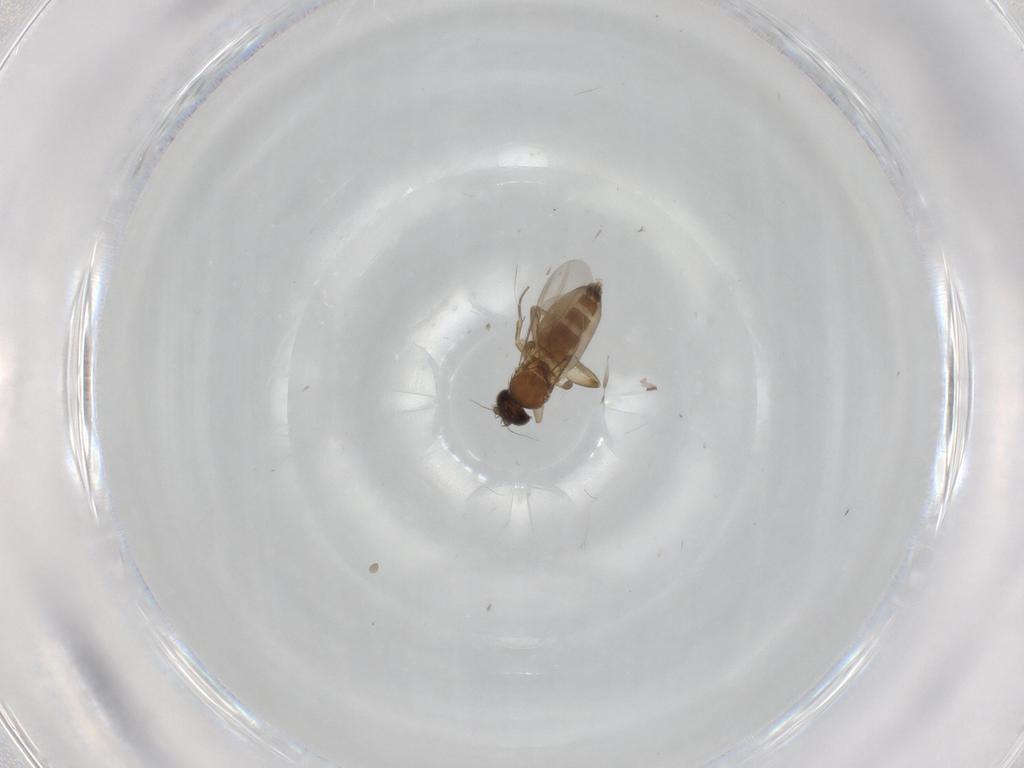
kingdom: Animalia
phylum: Arthropoda
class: Insecta
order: Diptera
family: Phoridae
